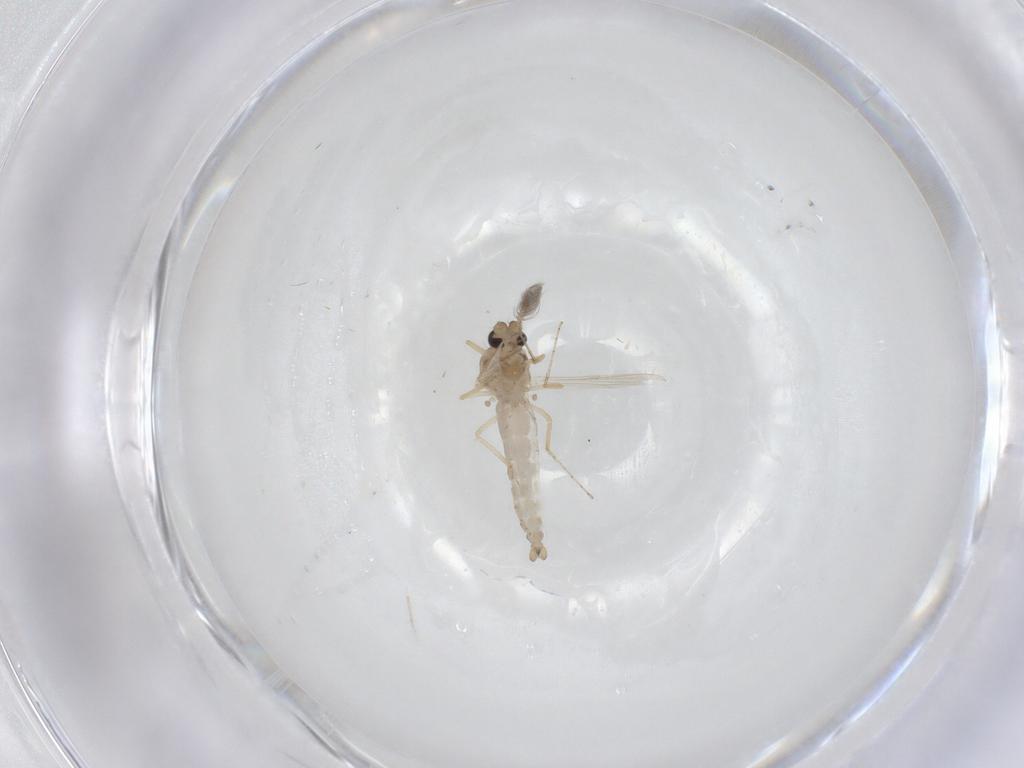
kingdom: Animalia
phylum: Arthropoda
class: Insecta
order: Diptera
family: Ceratopogonidae
